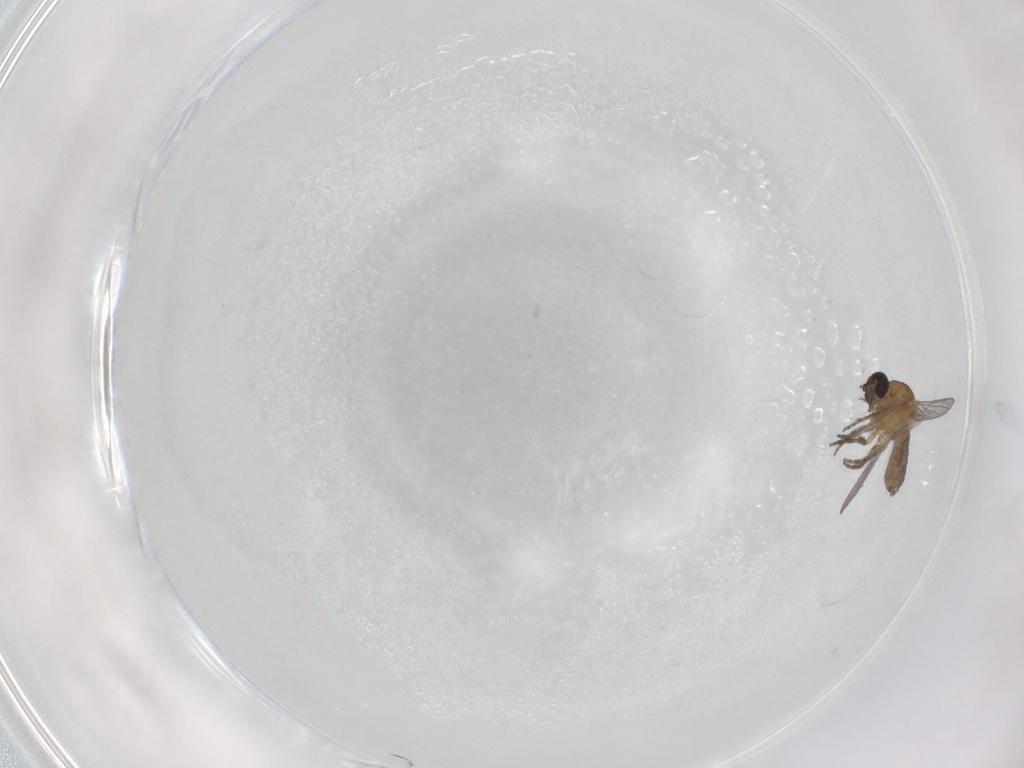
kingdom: Animalia
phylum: Arthropoda
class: Insecta
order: Diptera
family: Ceratopogonidae
